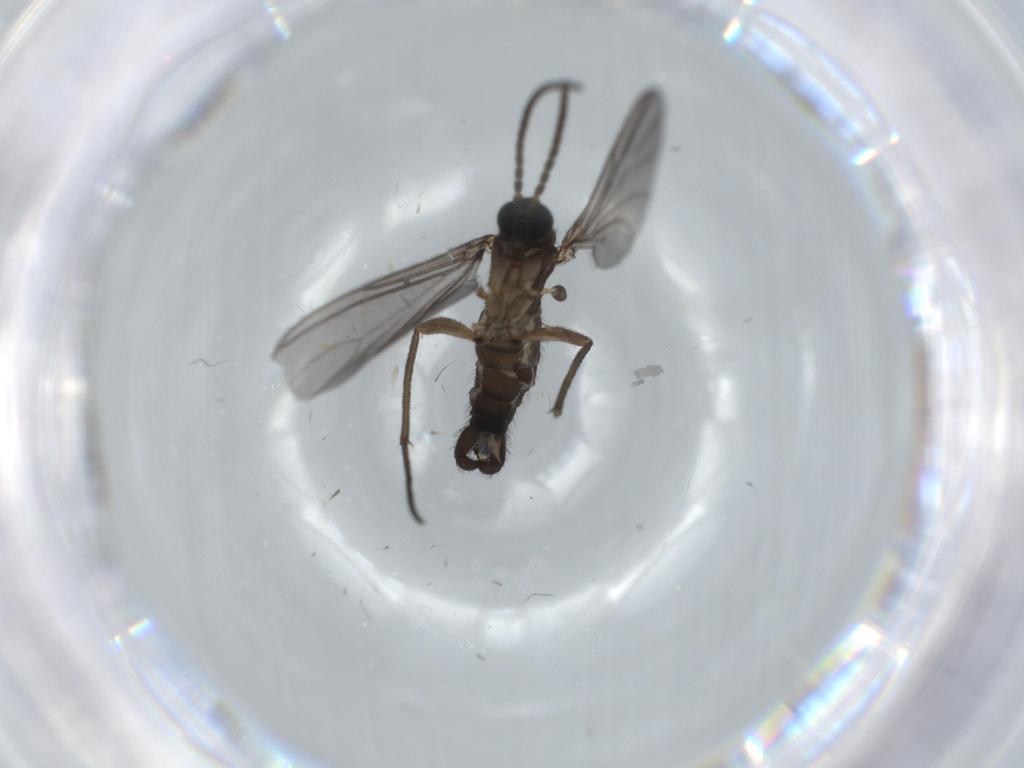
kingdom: Animalia
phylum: Arthropoda
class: Insecta
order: Diptera
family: Sciaridae
